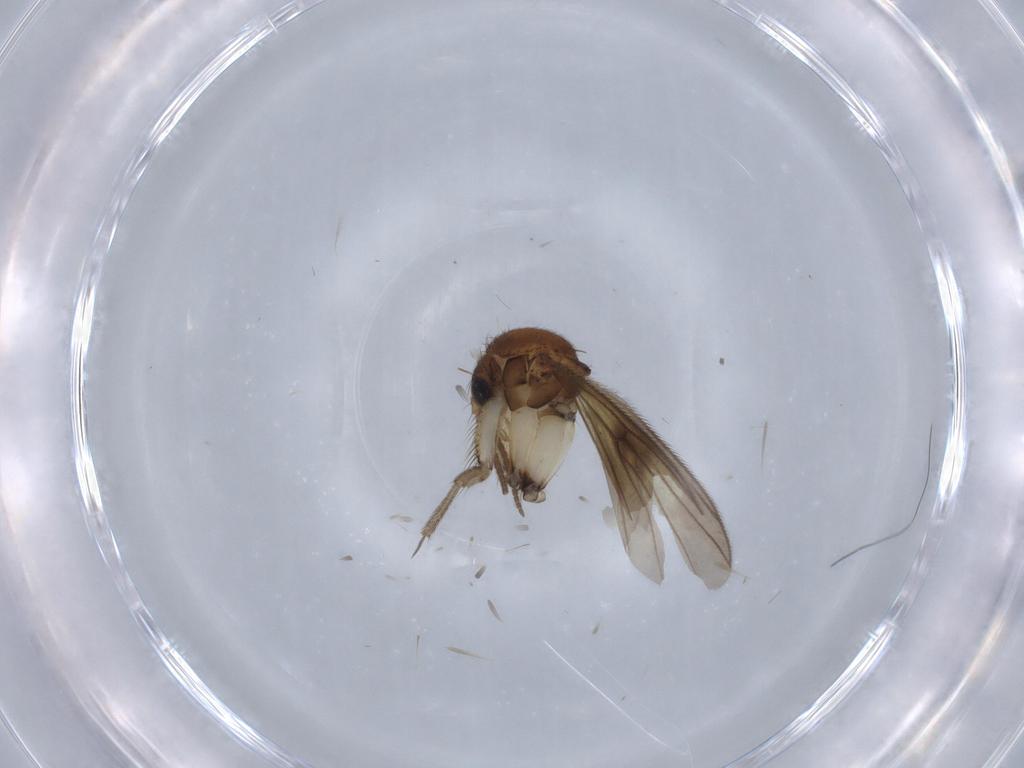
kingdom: Animalia
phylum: Arthropoda
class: Insecta
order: Diptera
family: Mycetophilidae
